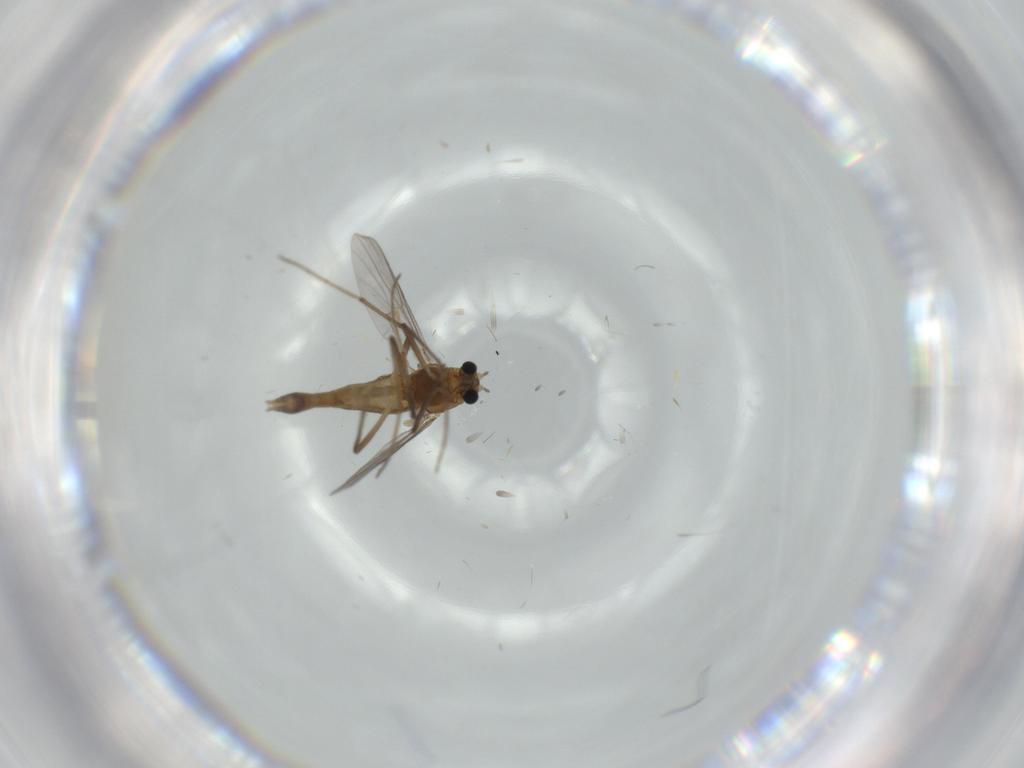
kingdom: Animalia
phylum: Arthropoda
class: Insecta
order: Diptera
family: Chironomidae
